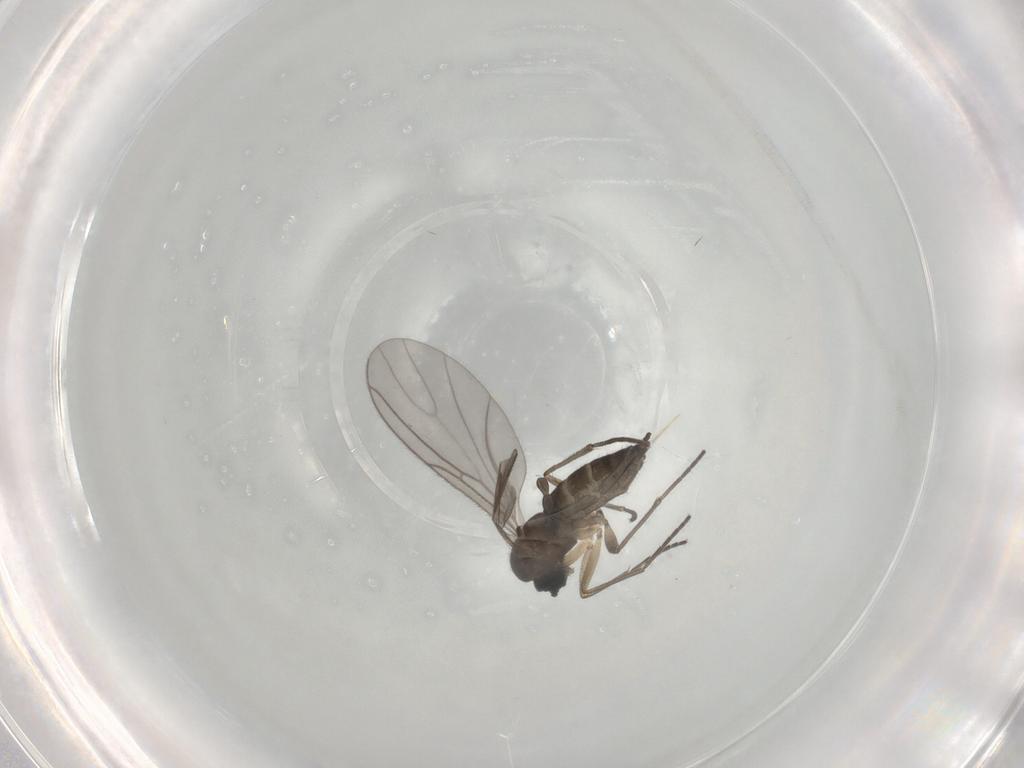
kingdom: Animalia
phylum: Arthropoda
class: Insecta
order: Diptera
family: Sciaridae
